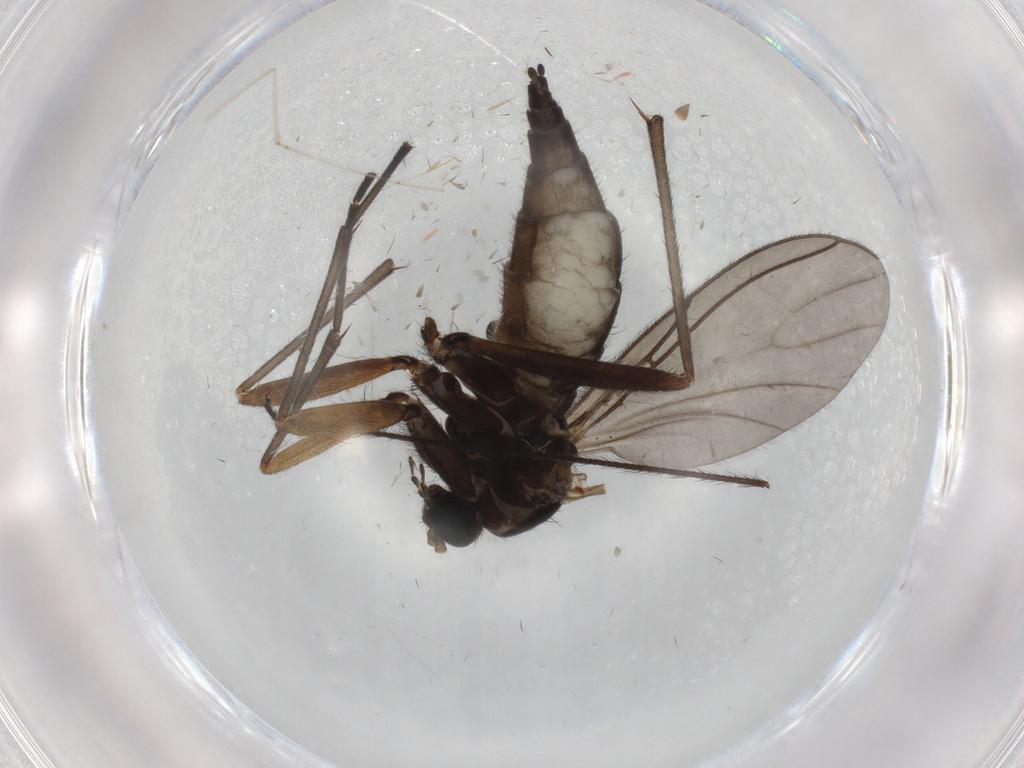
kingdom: Animalia
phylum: Arthropoda
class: Insecta
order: Diptera
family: Sciaridae
